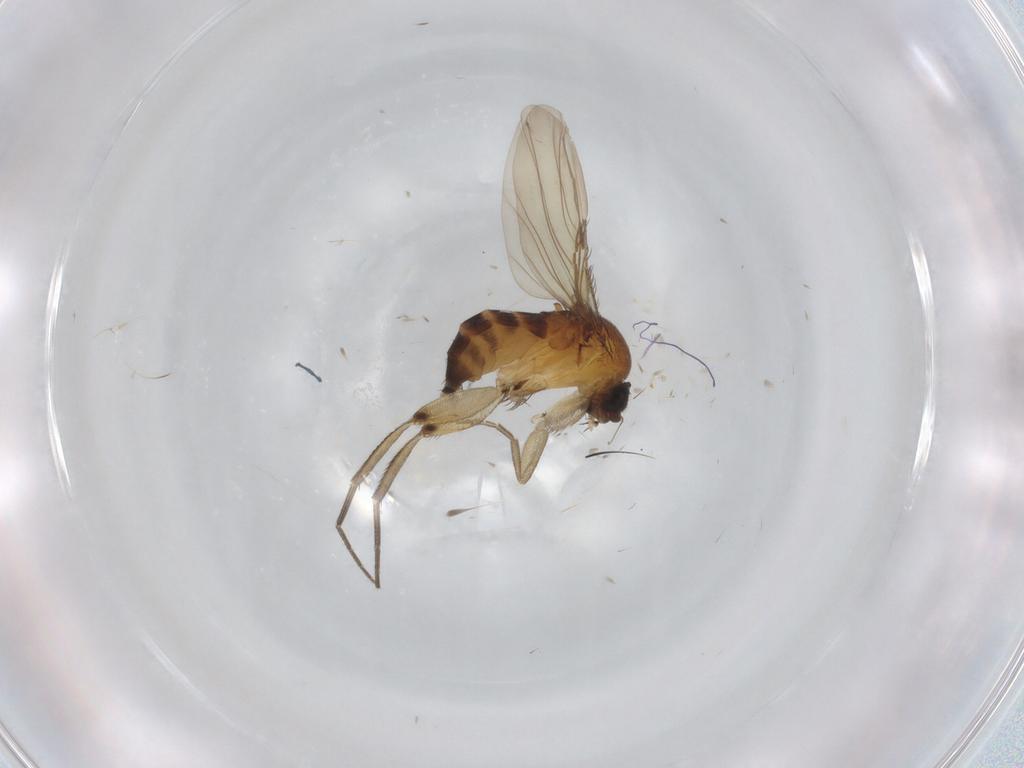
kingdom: Animalia
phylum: Arthropoda
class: Insecta
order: Diptera
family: Phoridae
